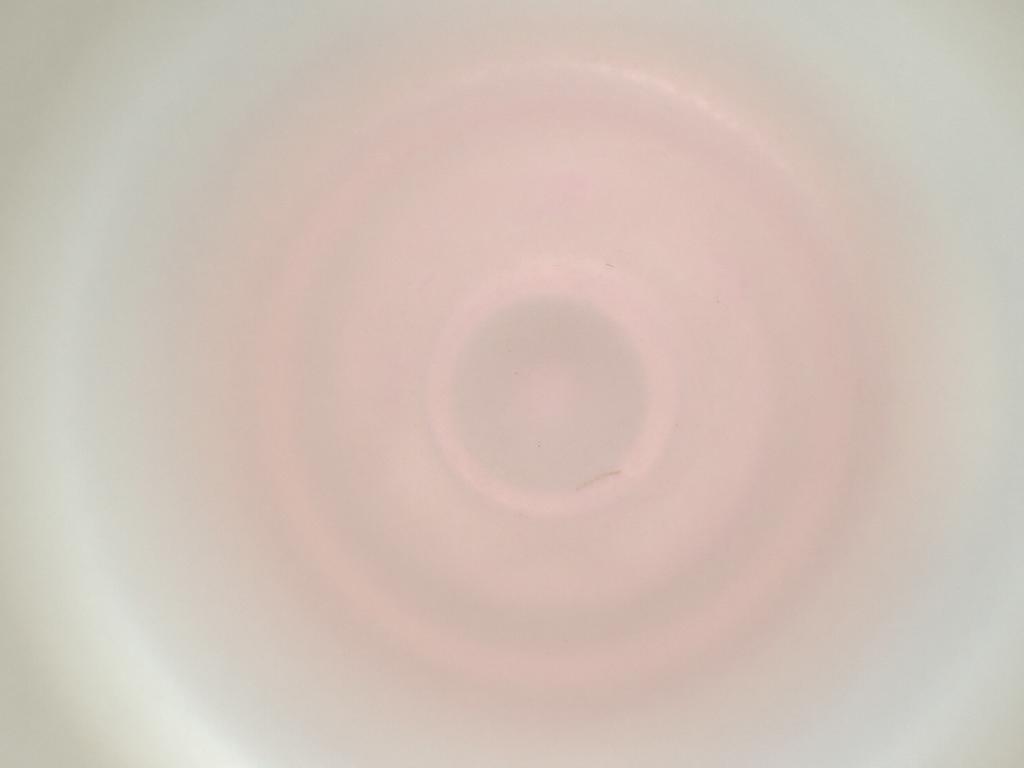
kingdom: Animalia
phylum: Arthropoda
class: Insecta
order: Diptera
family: Cecidomyiidae
